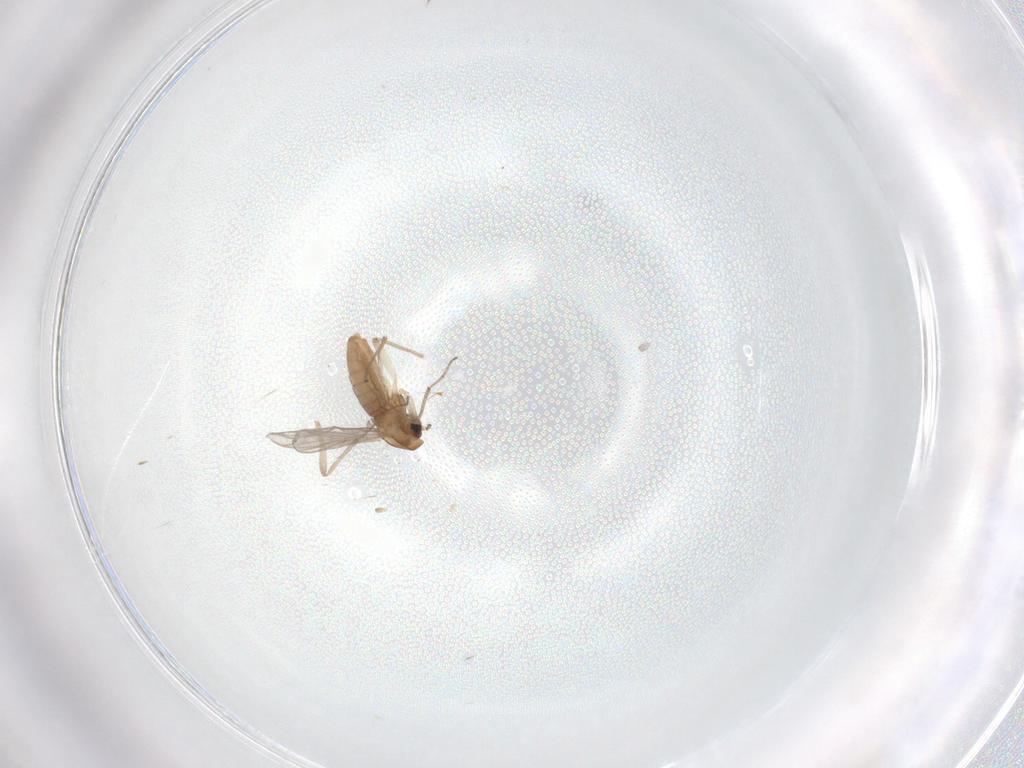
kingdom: Animalia
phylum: Arthropoda
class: Insecta
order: Diptera
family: Chironomidae
